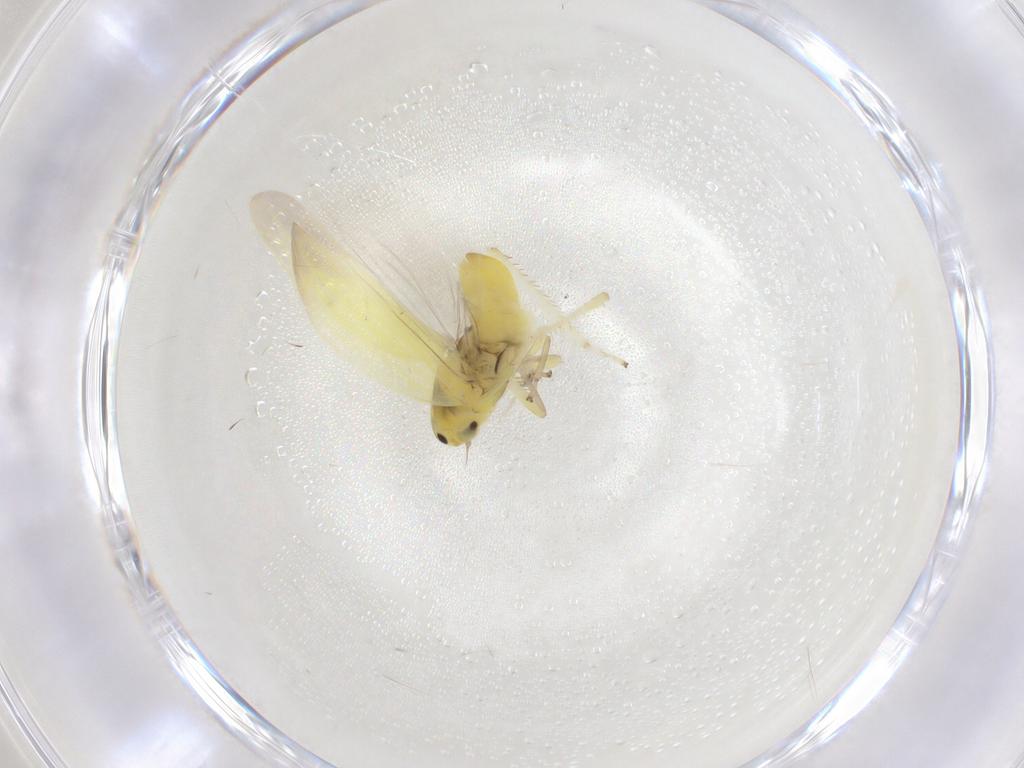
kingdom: Animalia
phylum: Arthropoda
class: Insecta
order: Hemiptera
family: Cicadellidae
